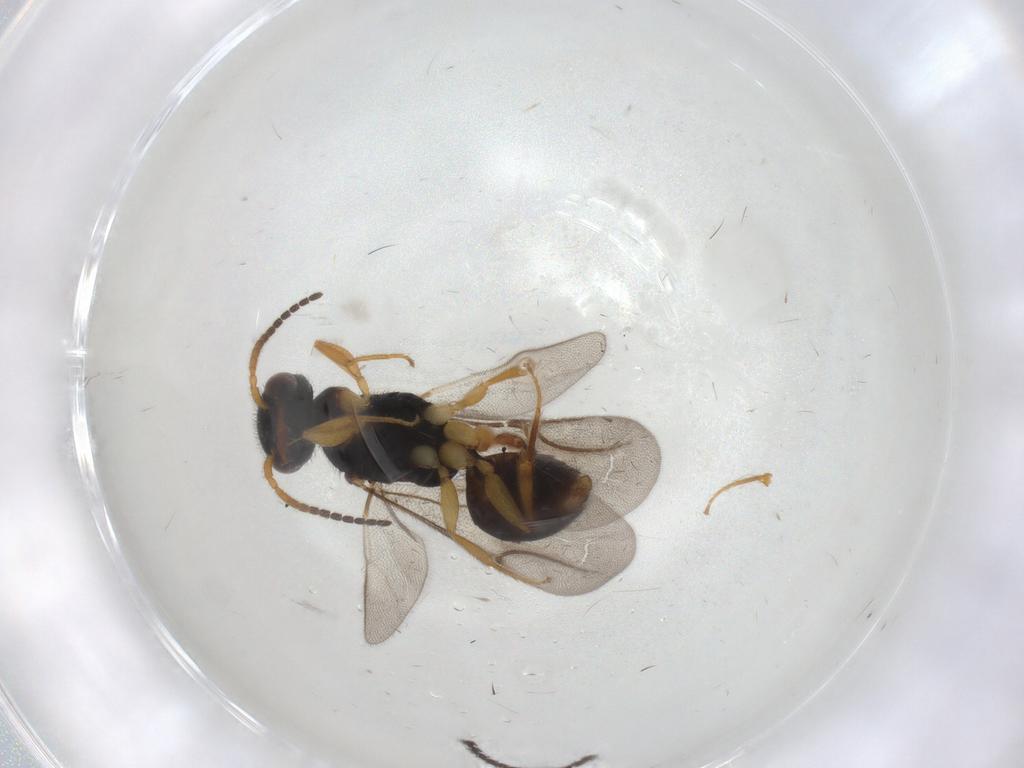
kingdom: Animalia
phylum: Arthropoda
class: Insecta
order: Hymenoptera
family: Bethylidae
